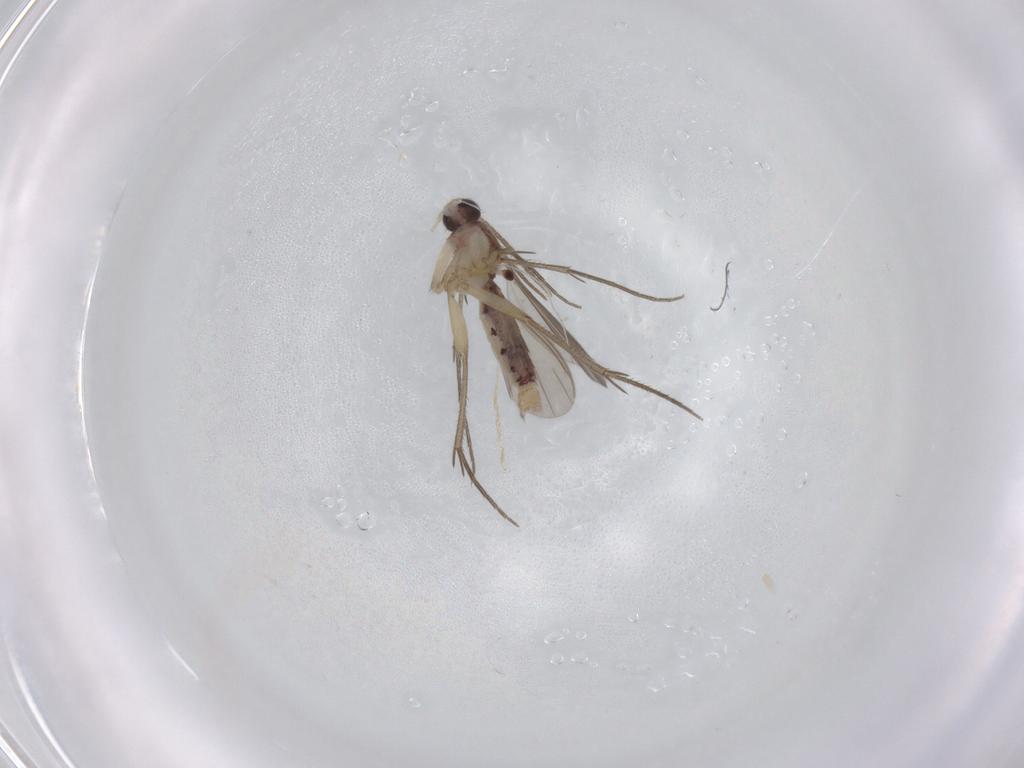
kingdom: Animalia
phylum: Arthropoda
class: Insecta
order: Diptera
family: Mycetophilidae
